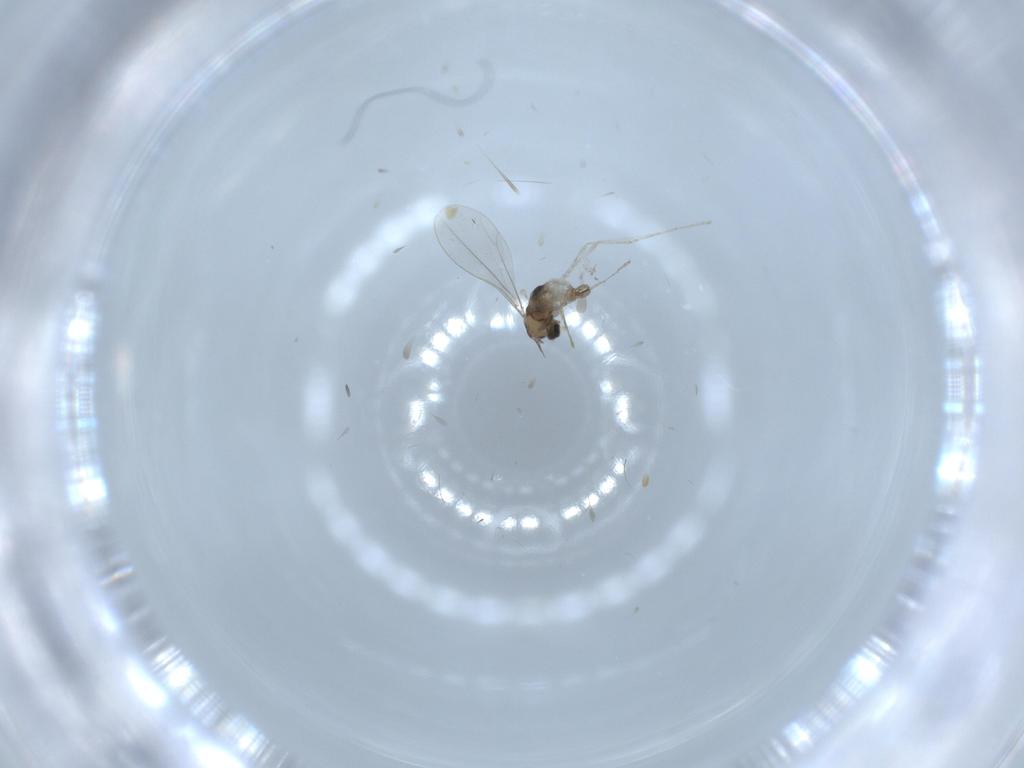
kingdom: Animalia
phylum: Arthropoda
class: Insecta
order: Diptera
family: Cecidomyiidae
